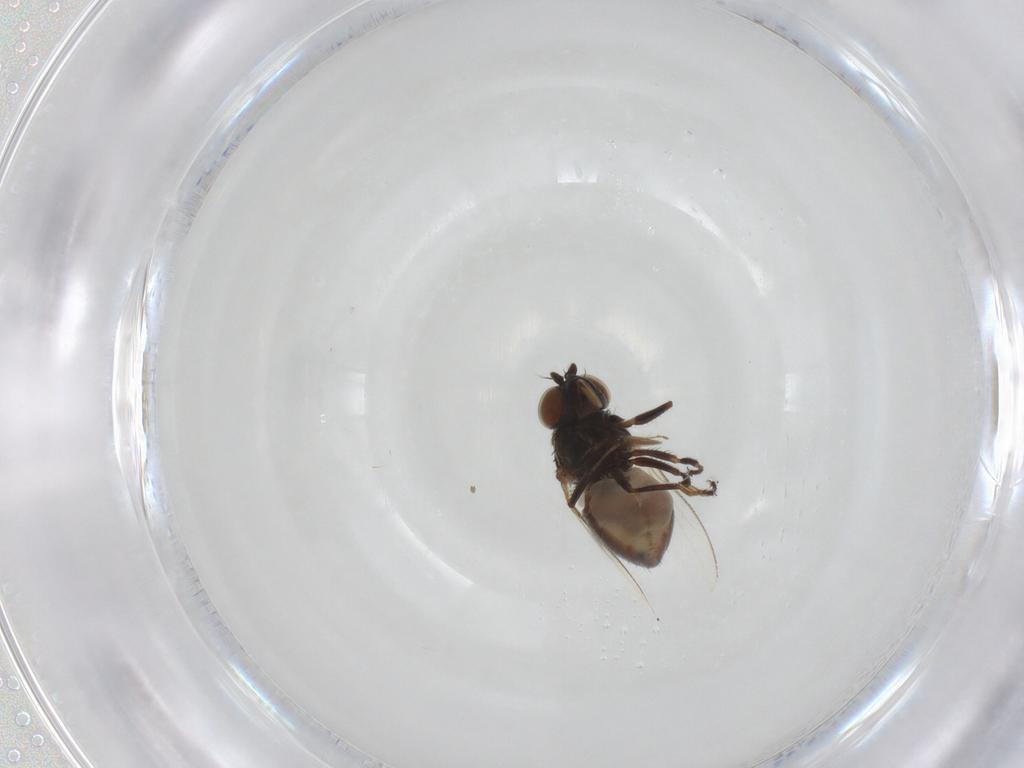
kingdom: Animalia
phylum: Arthropoda
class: Insecta
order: Diptera
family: Ephydridae
